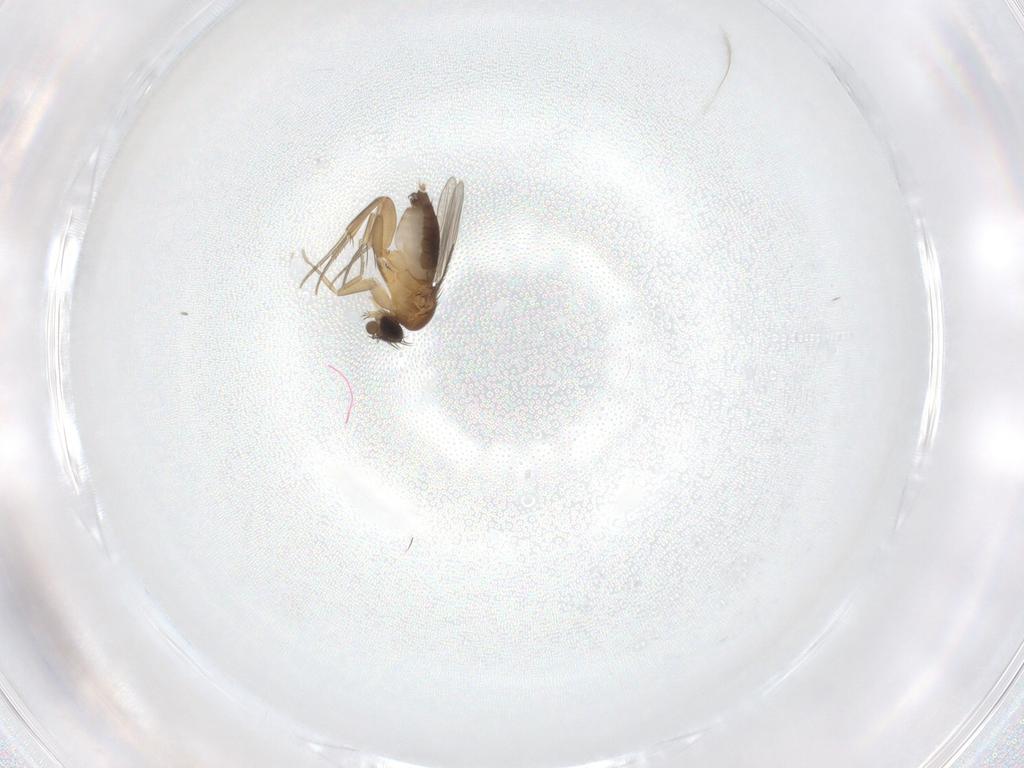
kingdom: Animalia
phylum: Arthropoda
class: Insecta
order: Diptera
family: Phoridae
